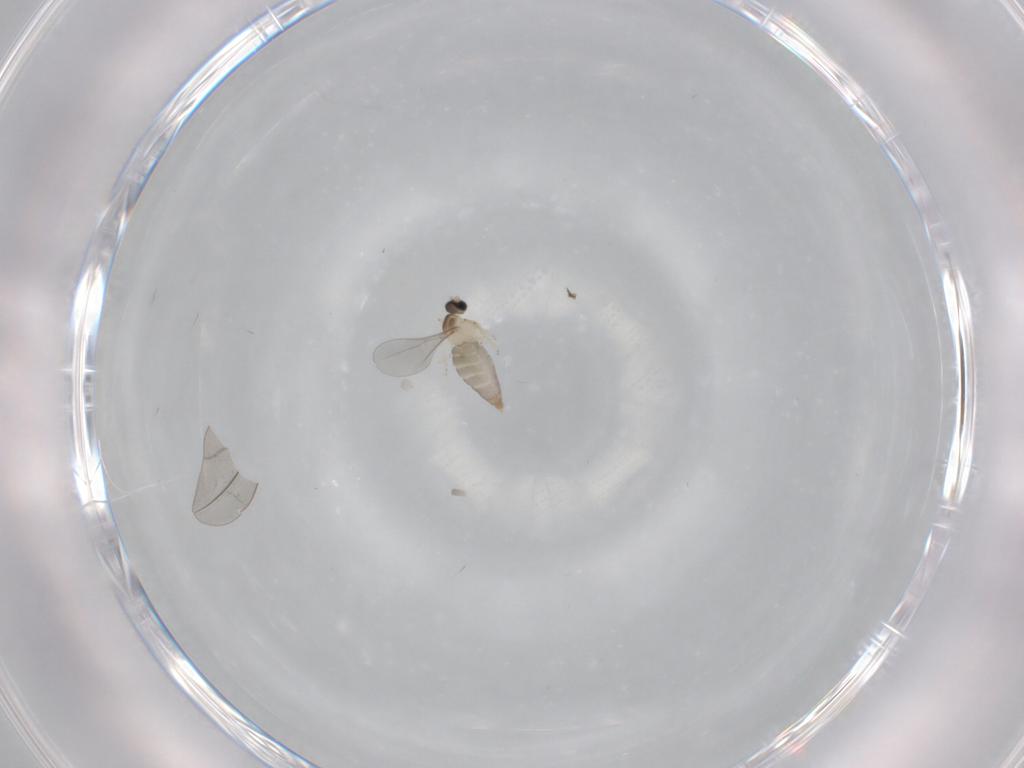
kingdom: Animalia
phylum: Arthropoda
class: Insecta
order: Diptera
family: Cecidomyiidae
